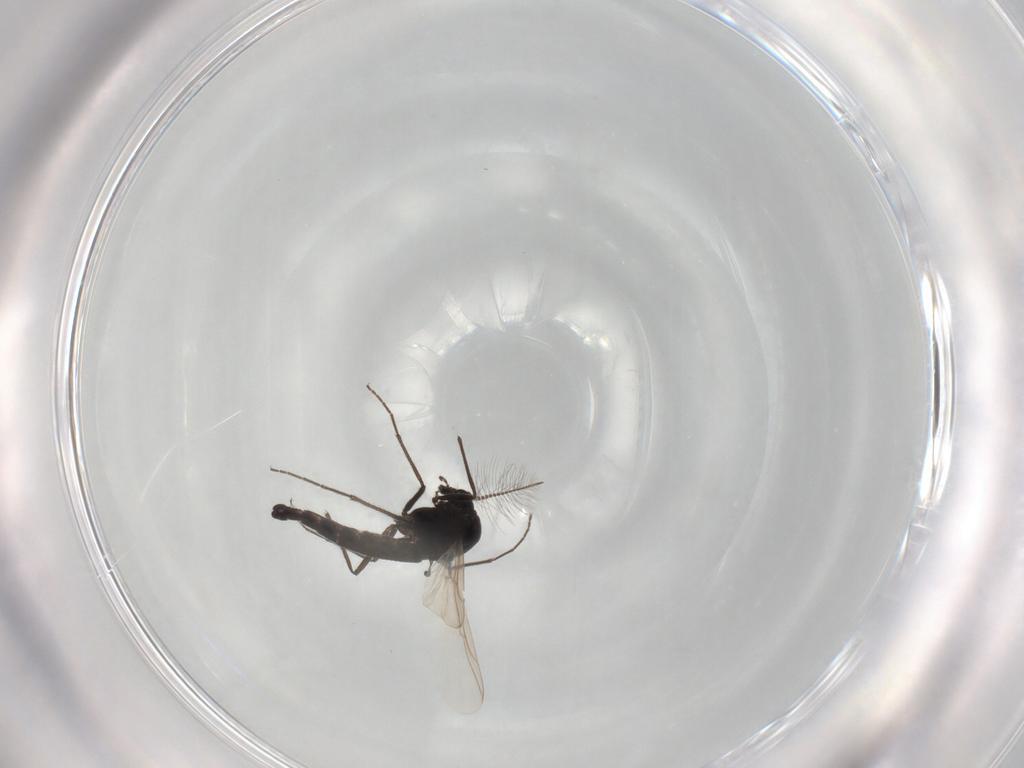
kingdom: Animalia
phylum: Arthropoda
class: Insecta
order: Diptera
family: Chironomidae
